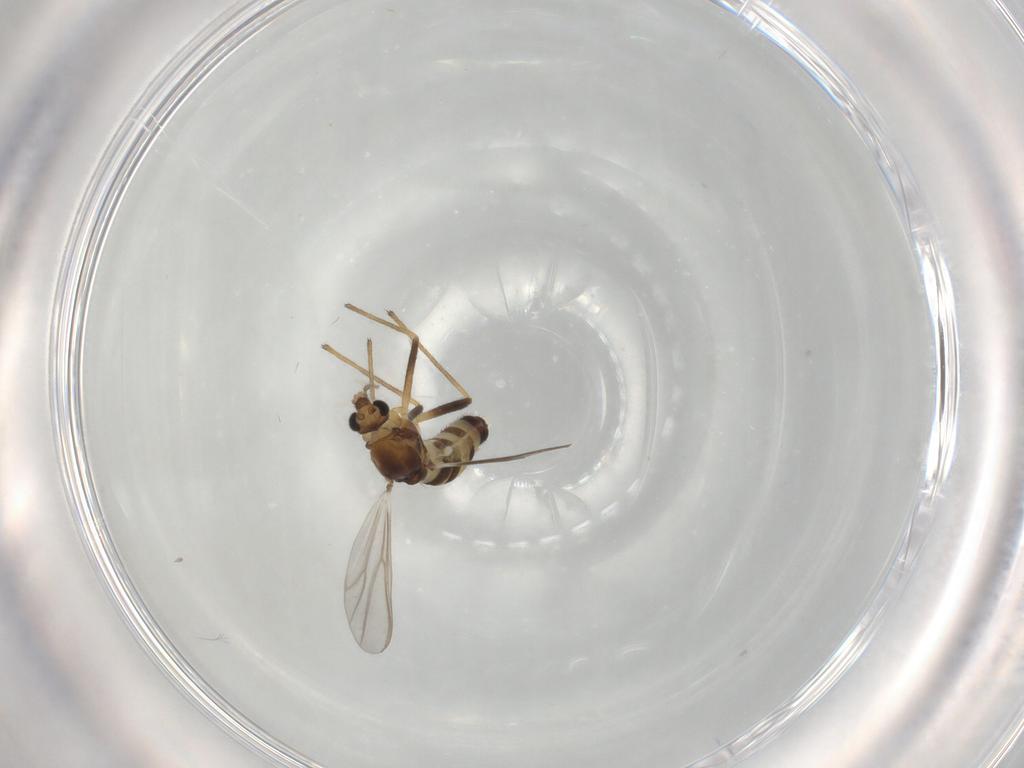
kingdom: Animalia
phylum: Arthropoda
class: Insecta
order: Diptera
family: Chironomidae
